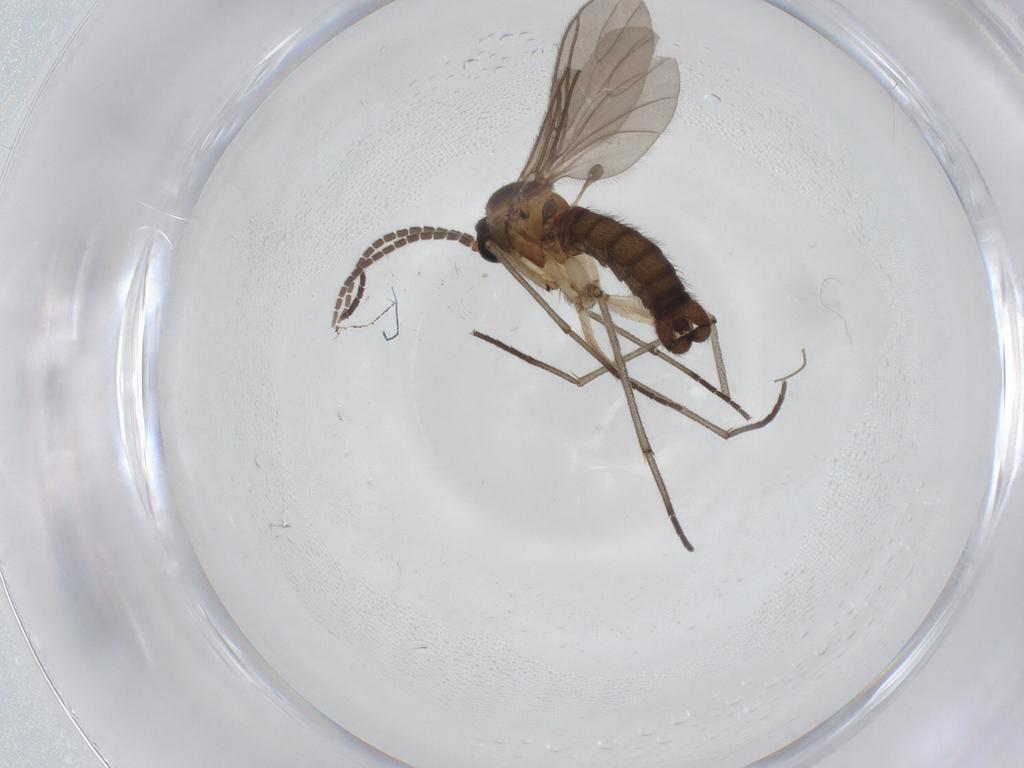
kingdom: Animalia
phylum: Arthropoda
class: Insecta
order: Diptera
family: Sciaridae
